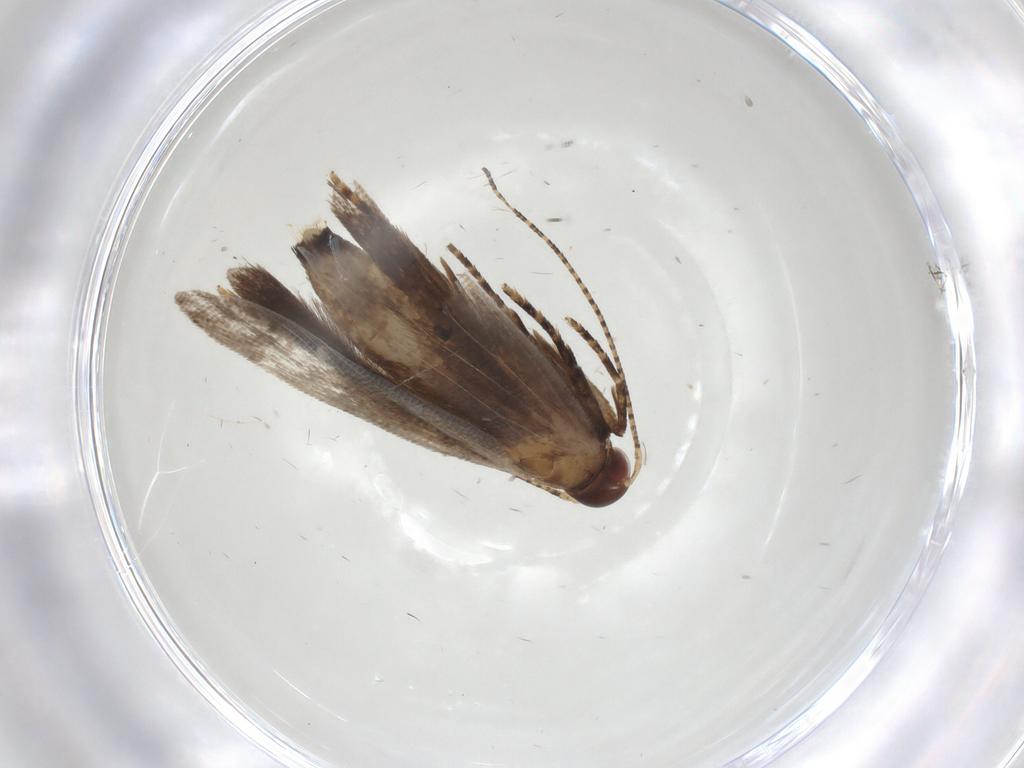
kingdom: Animalia
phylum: Arthropoda
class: Insecta
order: Lepidoptera
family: Gelechiidae
